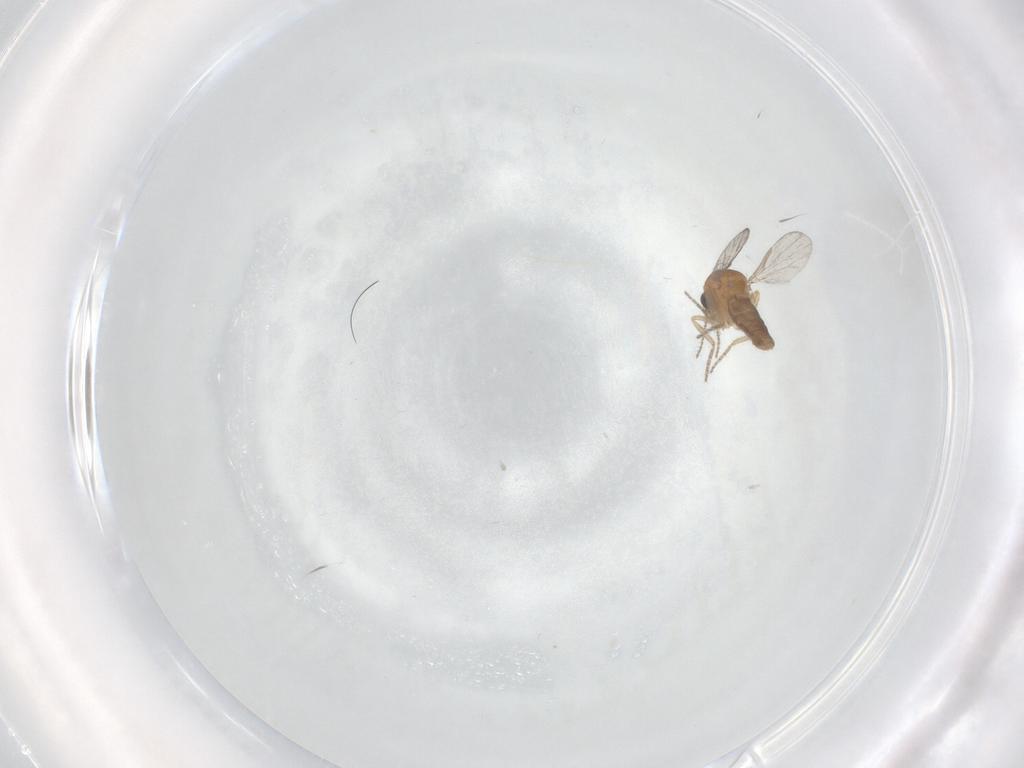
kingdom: Animalia
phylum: Arthropoda
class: Insecta
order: Diptera
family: Ceratopogonidae
